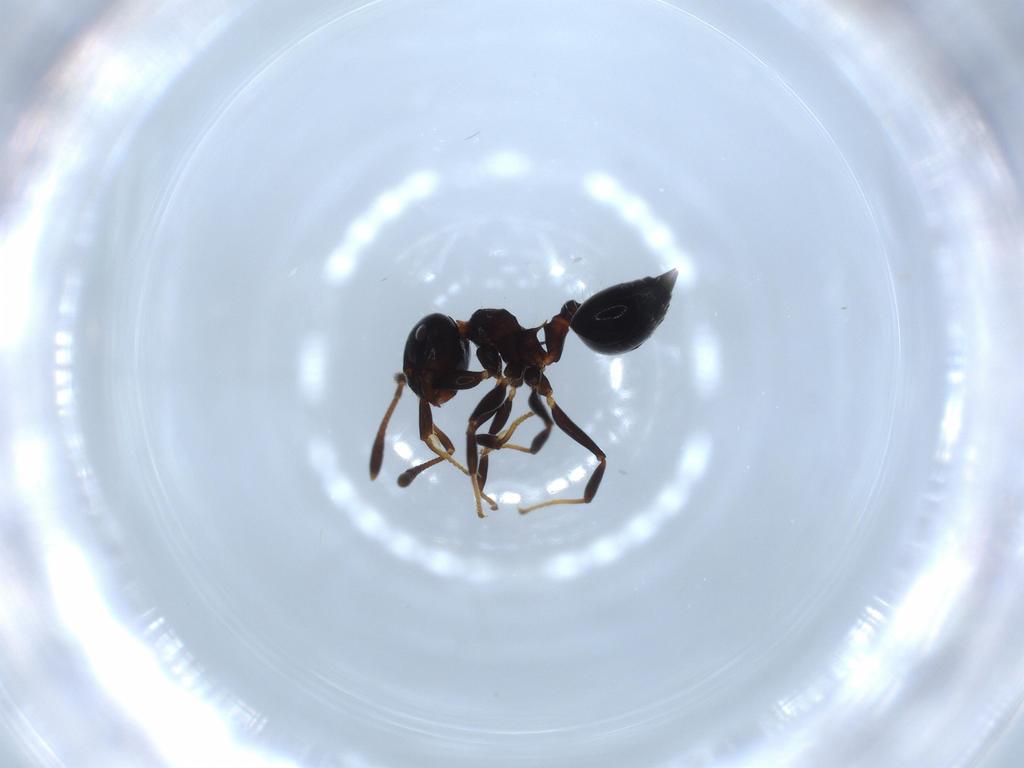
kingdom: Animalia
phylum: Arthropoda
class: Insecta
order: Hymenoptera
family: Formicidae
